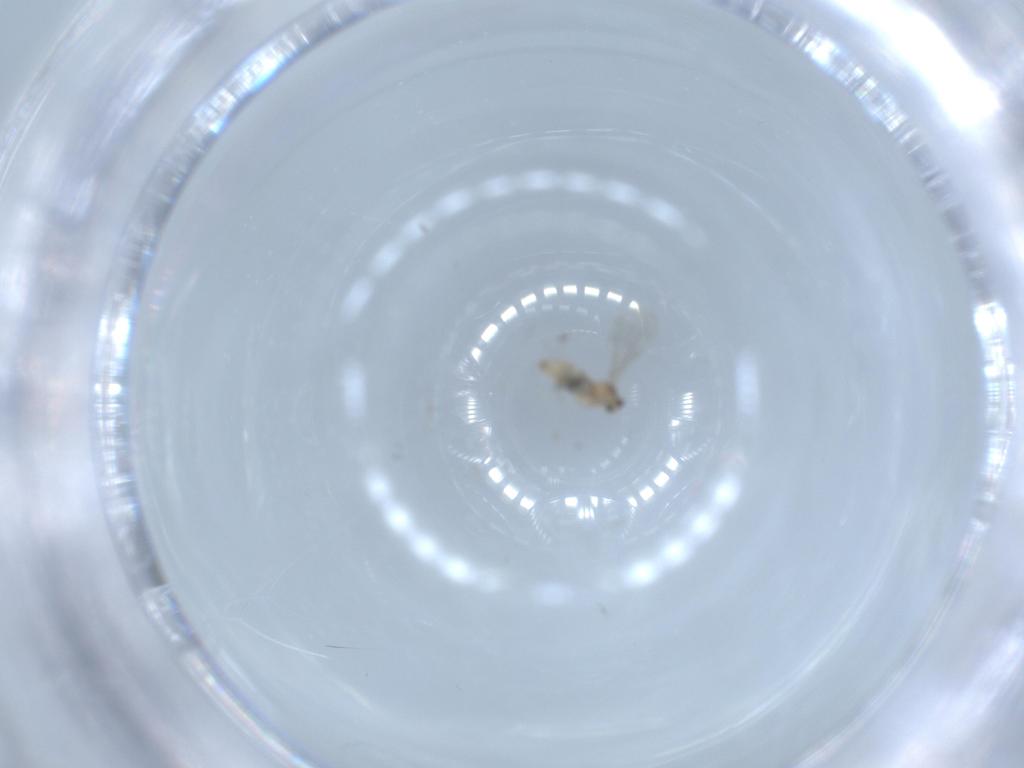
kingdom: Animalia
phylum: Arthropoda
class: Insecta
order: Diptera
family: Cecidomyiidae
